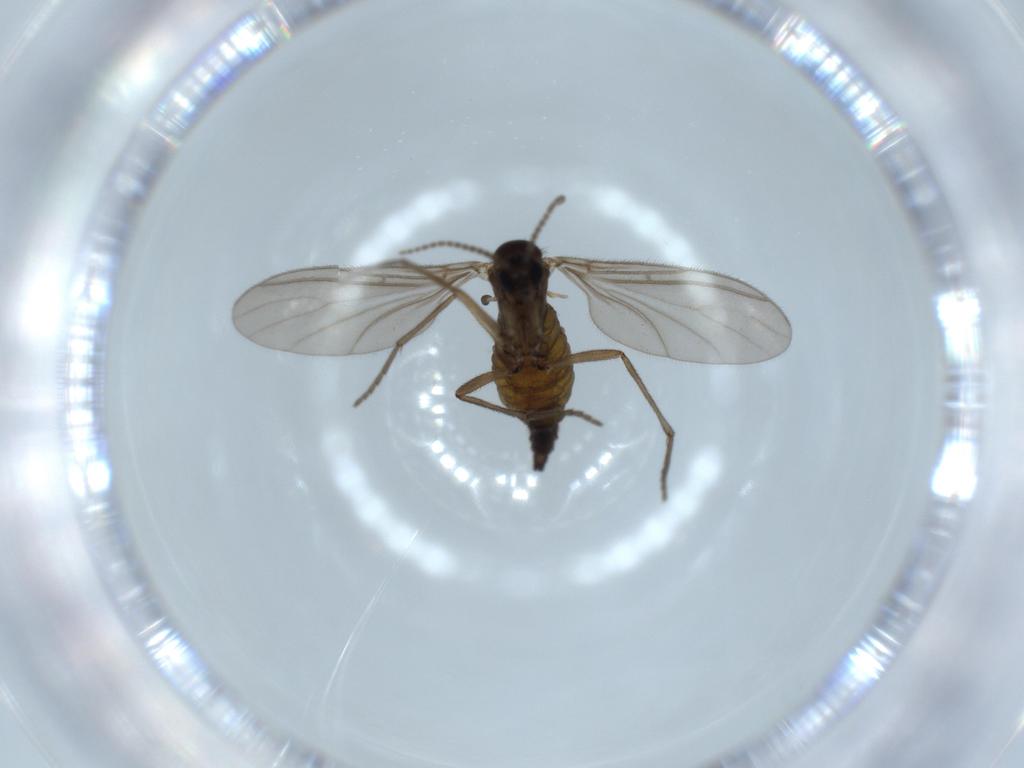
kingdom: Animalia
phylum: Arthropoda
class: Insecta
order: Diptera
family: Sciaridae
